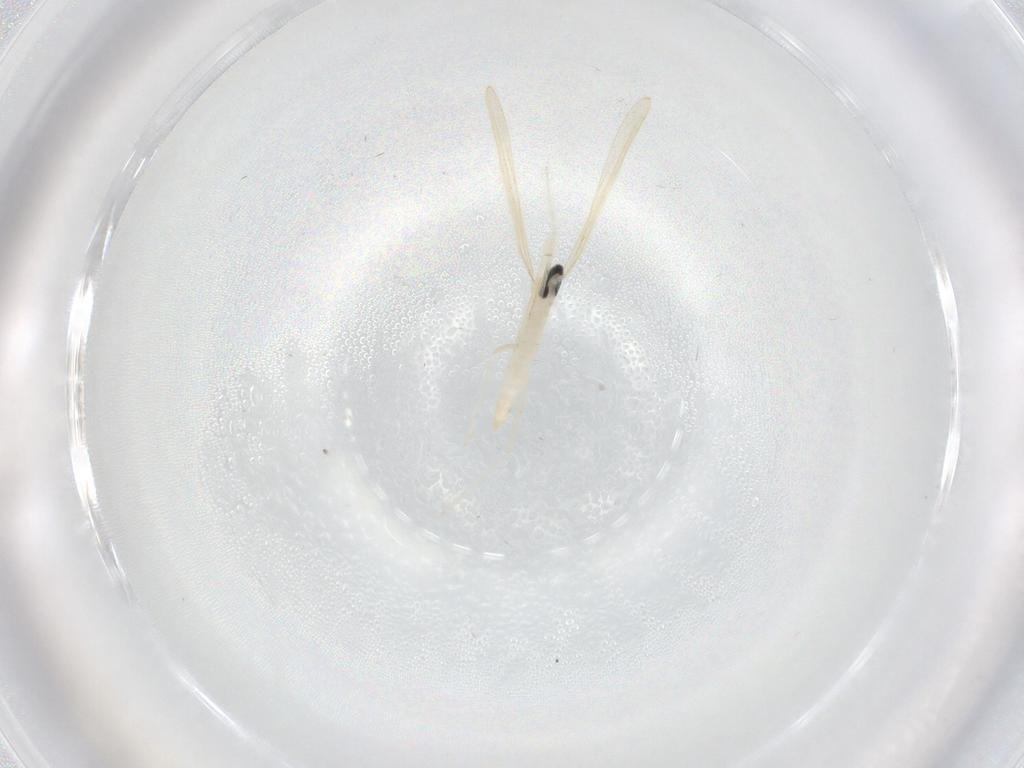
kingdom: Animalia
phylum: Arthropoda
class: Insecta
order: Diptera
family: Cecidomyiidae
